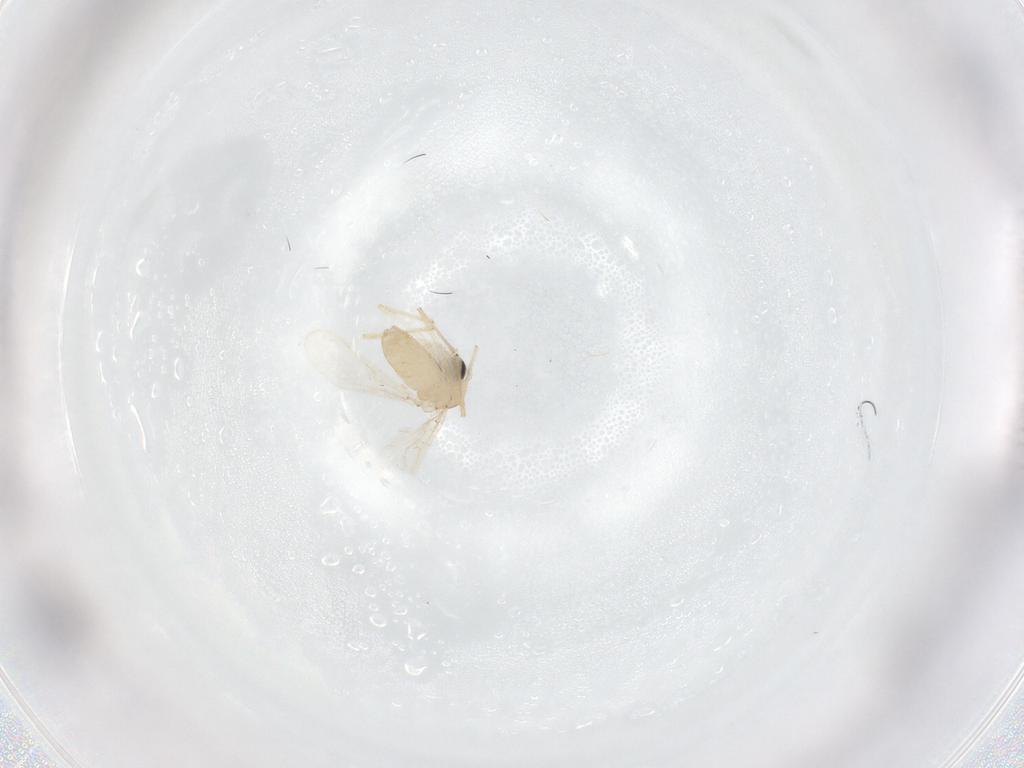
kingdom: Animalia
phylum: Arthropoda
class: Insecta
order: Diptera
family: Chironomidae
